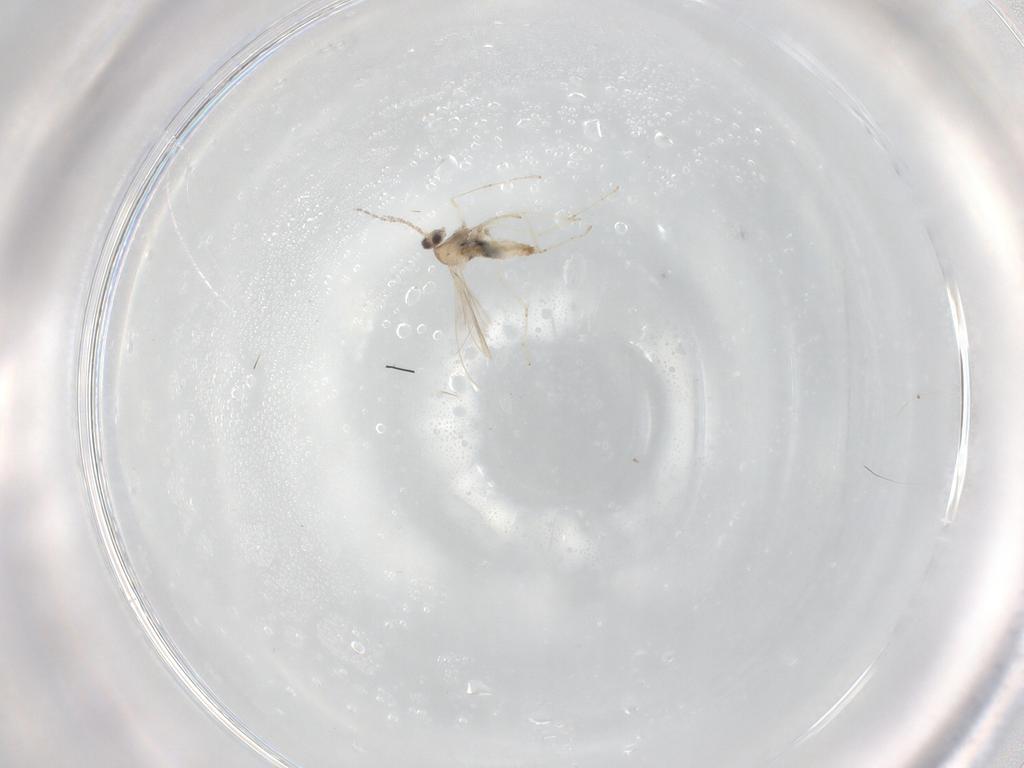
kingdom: Animalia
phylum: Arthropoda
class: Insecta
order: Diptera
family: Cecidomyiidae
